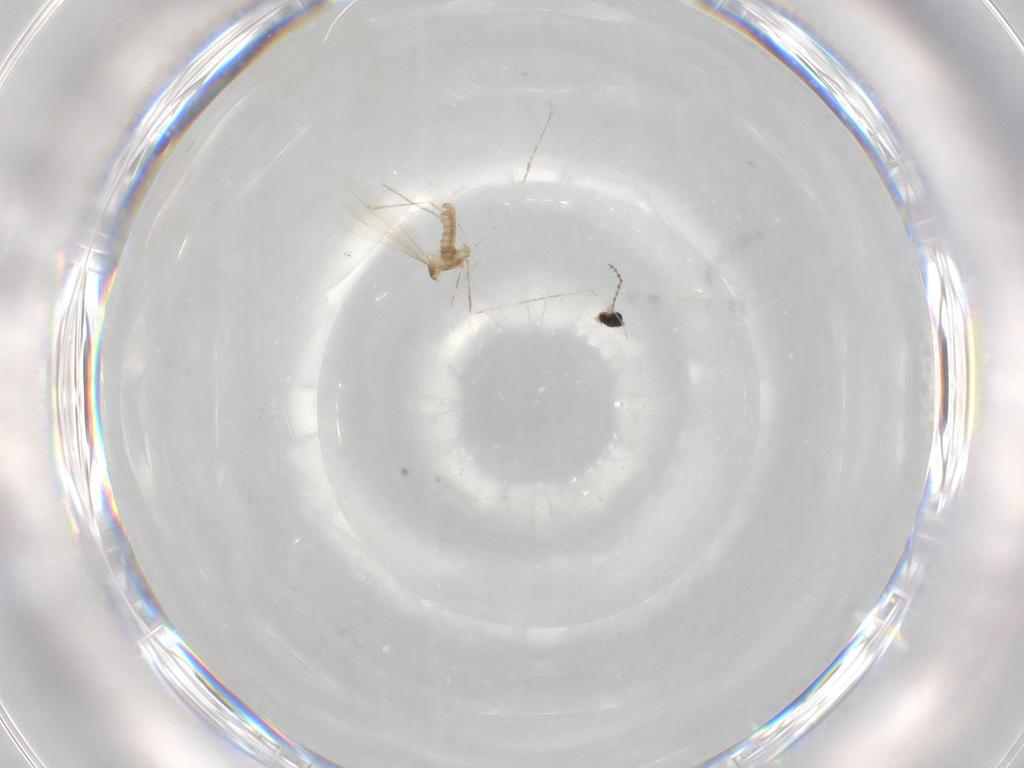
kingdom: Animalia
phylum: Arthropoda
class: Insecta
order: Diptera
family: Cecidomyiidae
